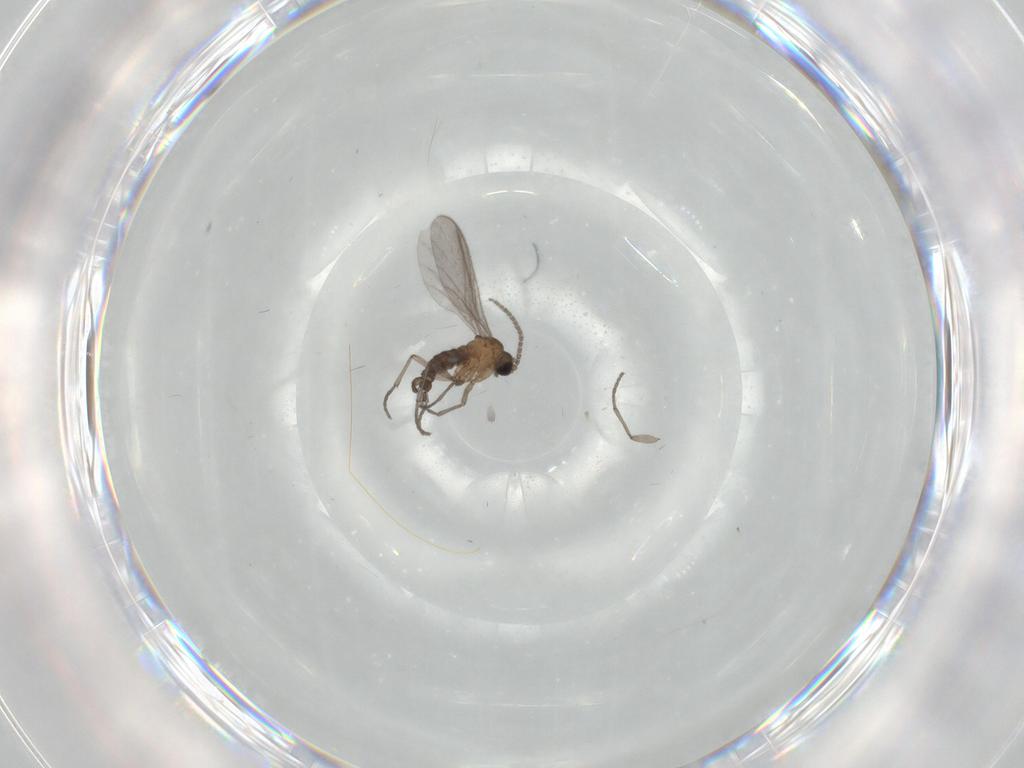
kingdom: Animalia
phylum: Arthropoda
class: Insecta
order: Diptera
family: Sciaridae
